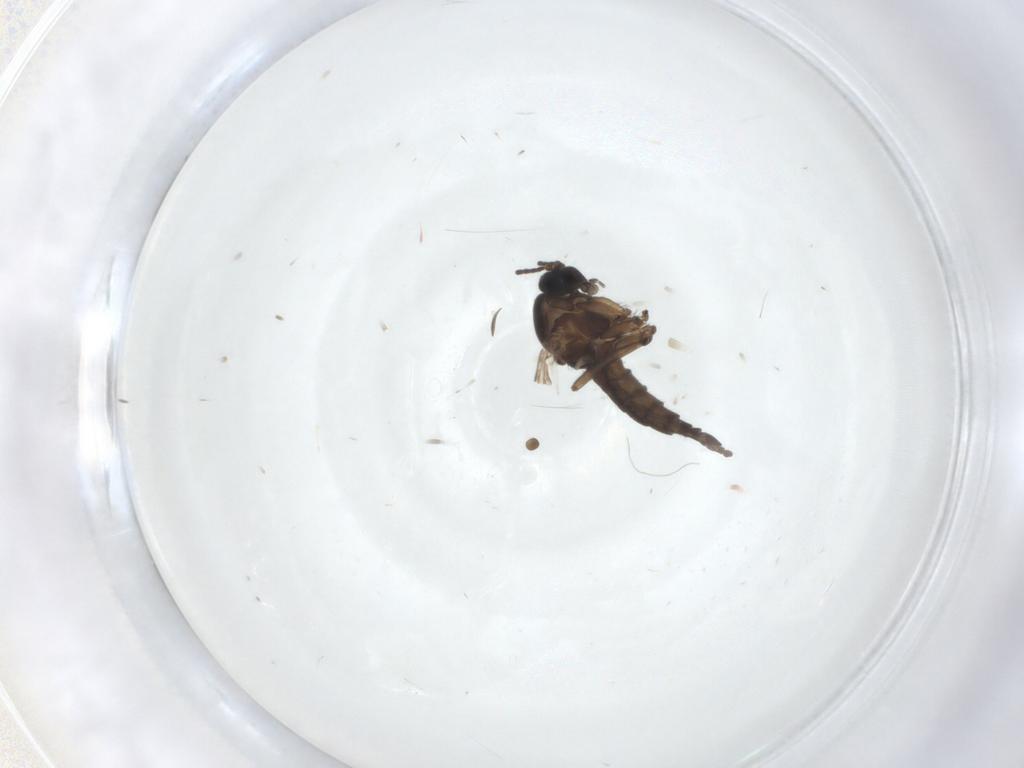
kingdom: Animalia
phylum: Arthropoda
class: Insecta
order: Diptera
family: Sciaridae
